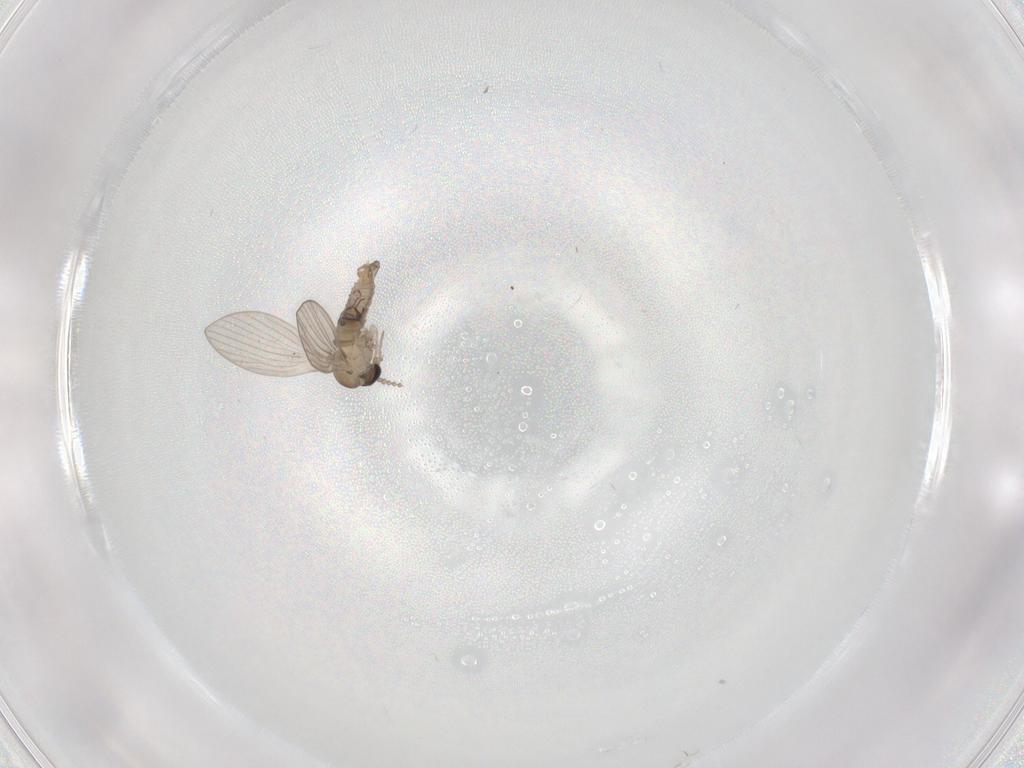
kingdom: Animalia
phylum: Arthropoda
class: Insecta
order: Diptera
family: Psychodidae
